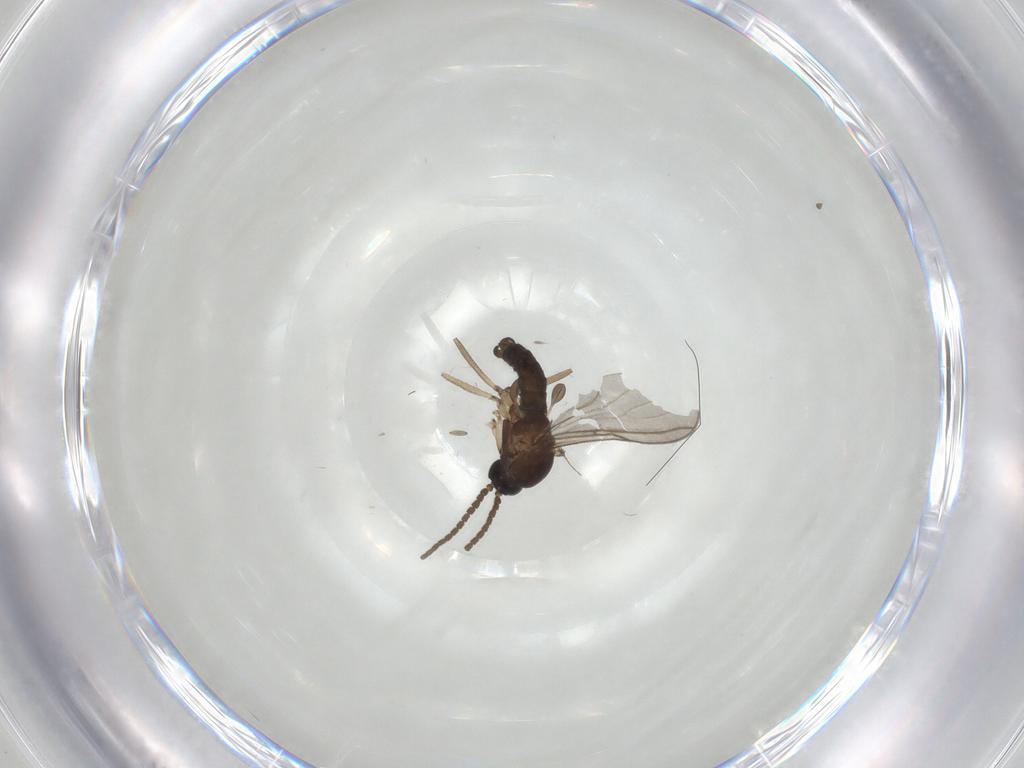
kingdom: Animalia
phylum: Arthropoda
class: Insecta
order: Diptera
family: Sciaridae
